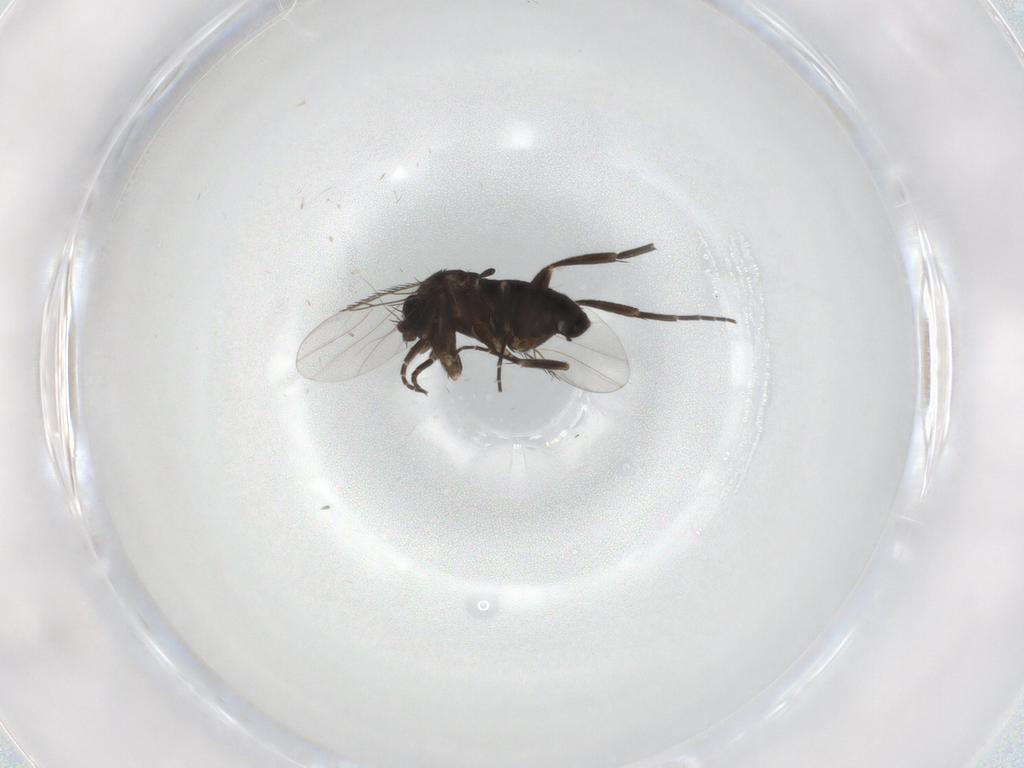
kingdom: Animalia
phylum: Arthropoda
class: Insecta
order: Diptera
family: Phoridae
